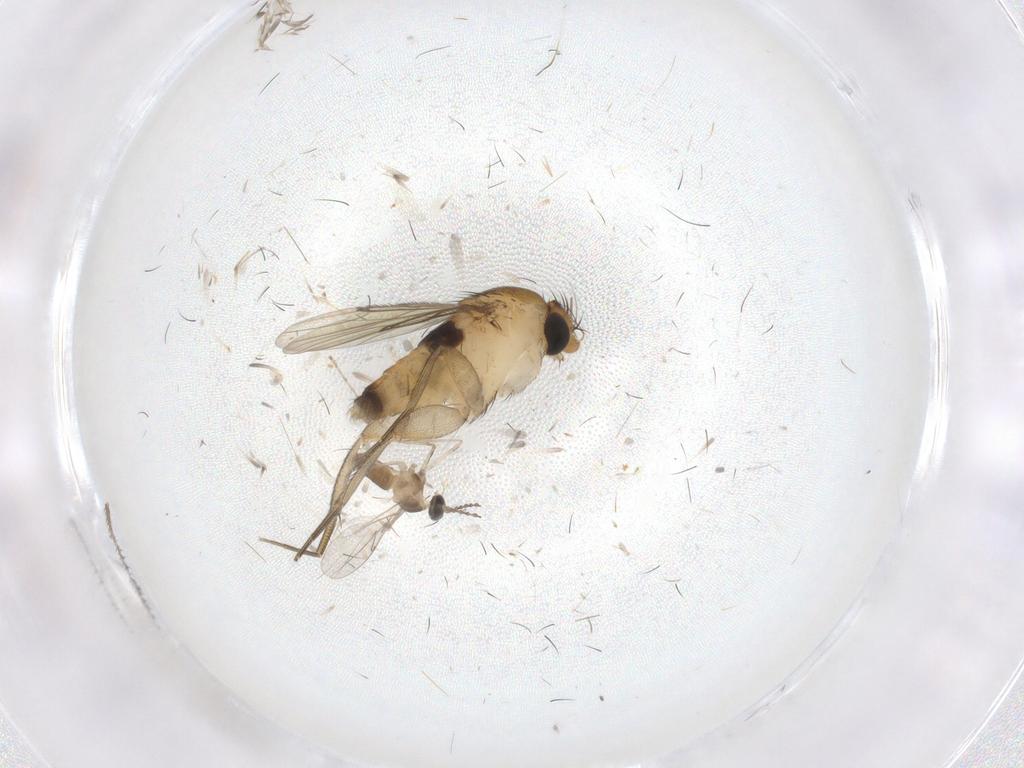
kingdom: Animalia
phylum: Arthropoda
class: Insecta
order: Diptera
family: Cecidomyiidae
